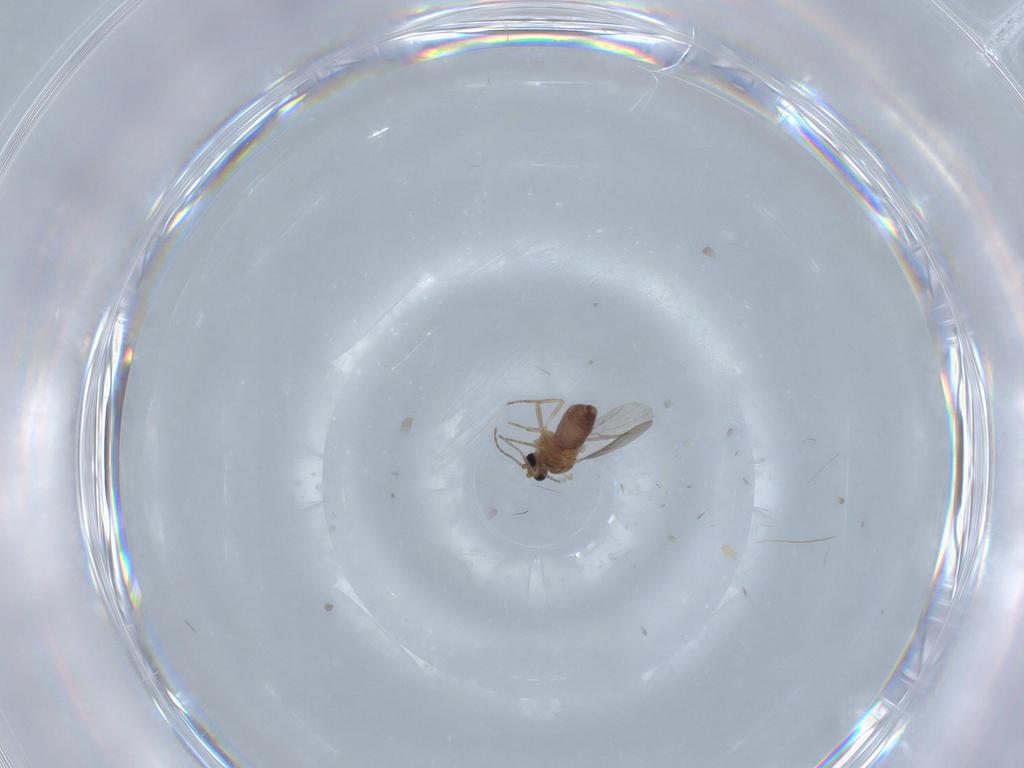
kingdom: Animalia
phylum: Arthropoda
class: Insecta
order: Diptera
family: Ceratopogonidae
